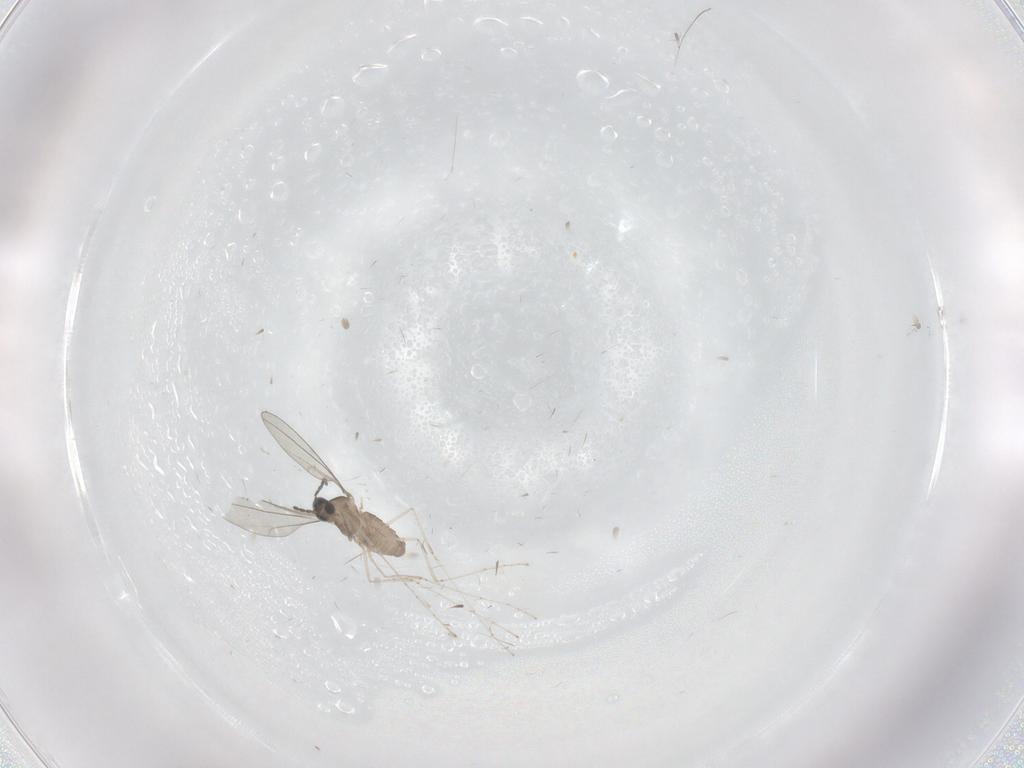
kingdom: Animalia
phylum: Arthropoda
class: Insecta
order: Diptera
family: Cecidomyiidae
